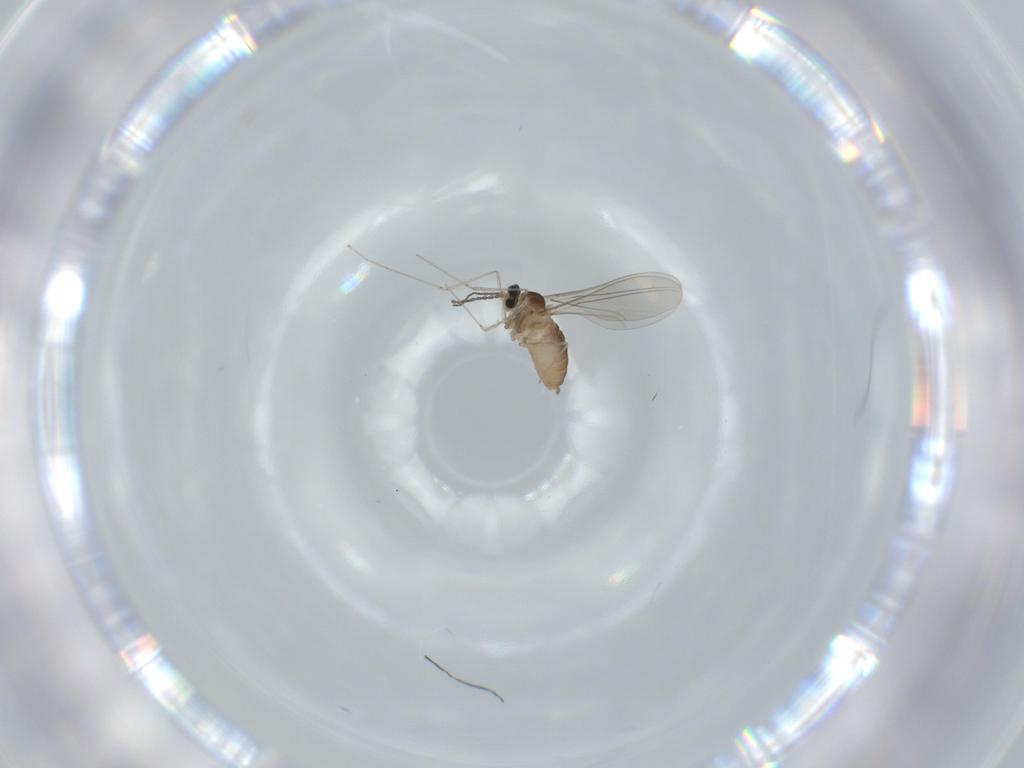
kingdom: Animalia
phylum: Arthropoda
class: Insecta
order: Diptera
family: Cecidomyiidae
